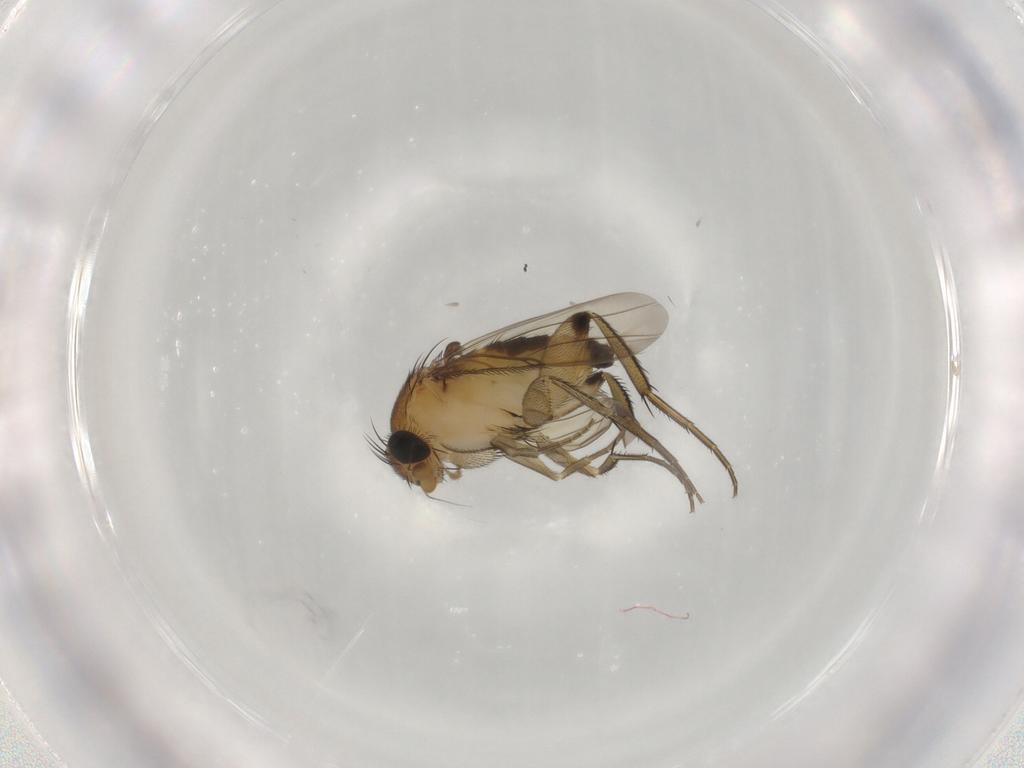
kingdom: Animalia
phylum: Arthropoda
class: Insecta
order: Diptera
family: Phoridae
